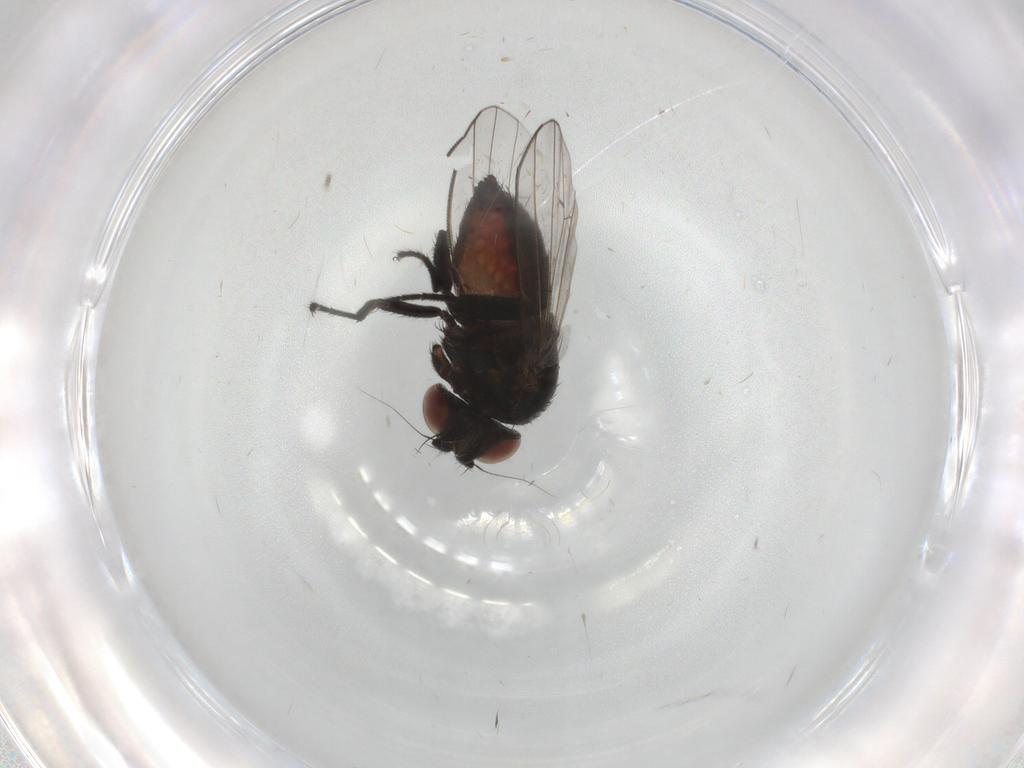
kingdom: Animalia
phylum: Arthropoda
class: Insecta
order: Diptera
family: Milichiidae
